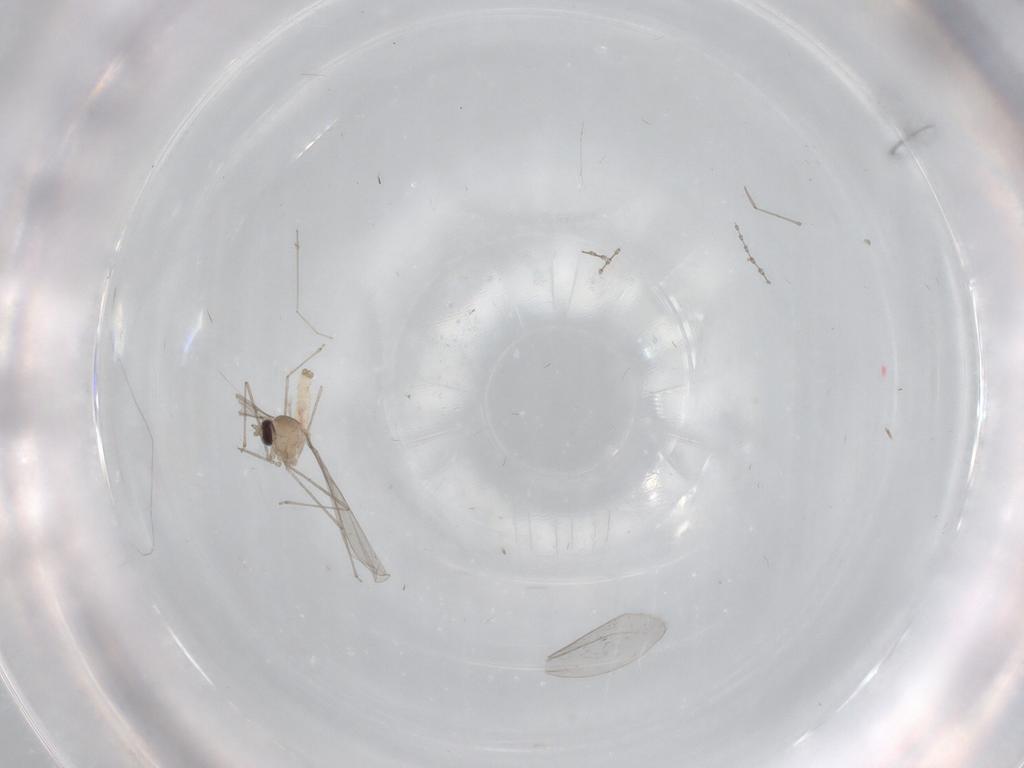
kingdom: Animalia
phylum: Arthropoda
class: Insecta
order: Diptera
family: Cecidomyiidae
